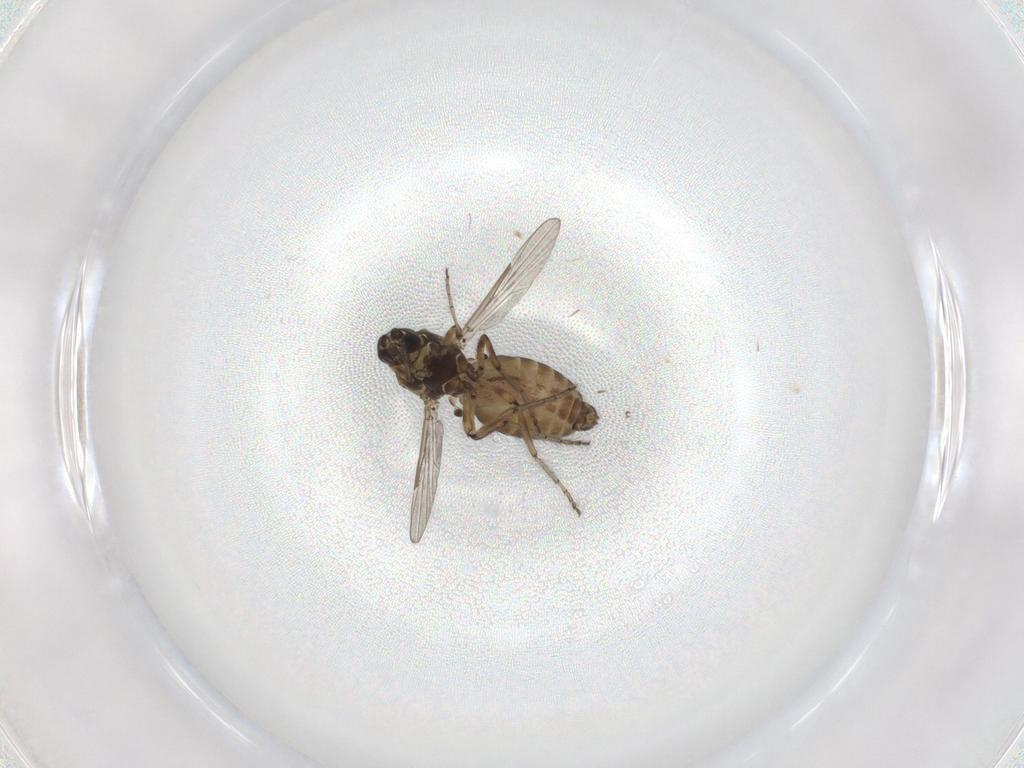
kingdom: Animalia
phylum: Arthropoda
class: Insecta
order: Diptera
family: Ceratopogonidae
